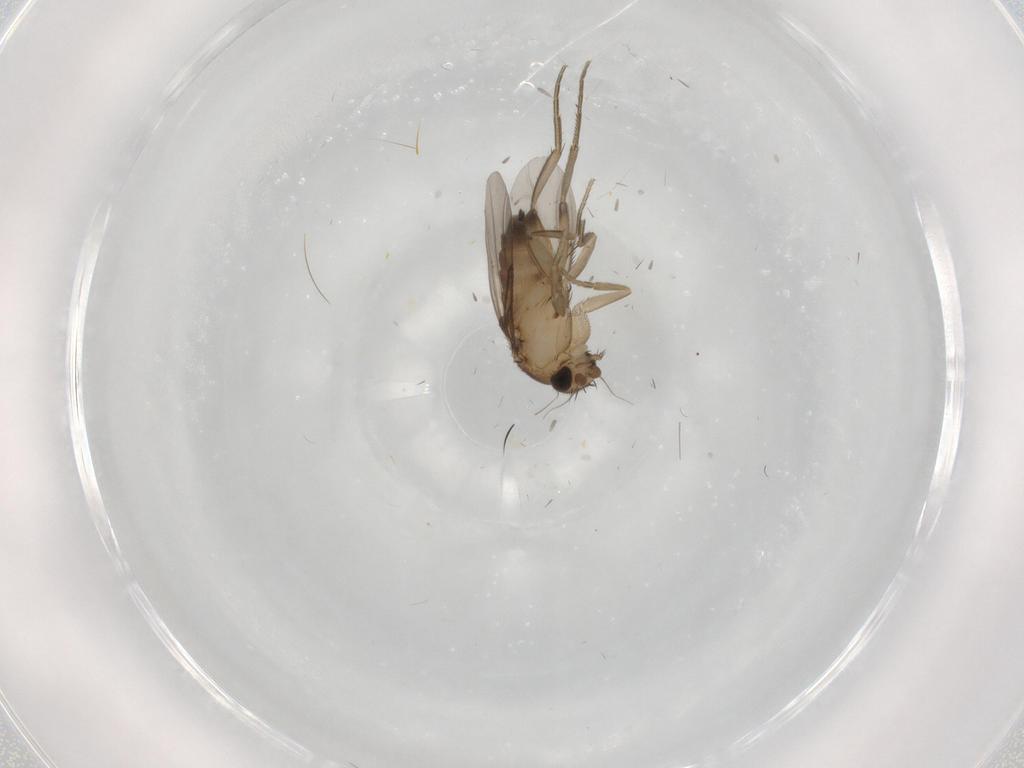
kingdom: Animalia
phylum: Arthropoda
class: Insecta
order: Diptera
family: Phoridae
